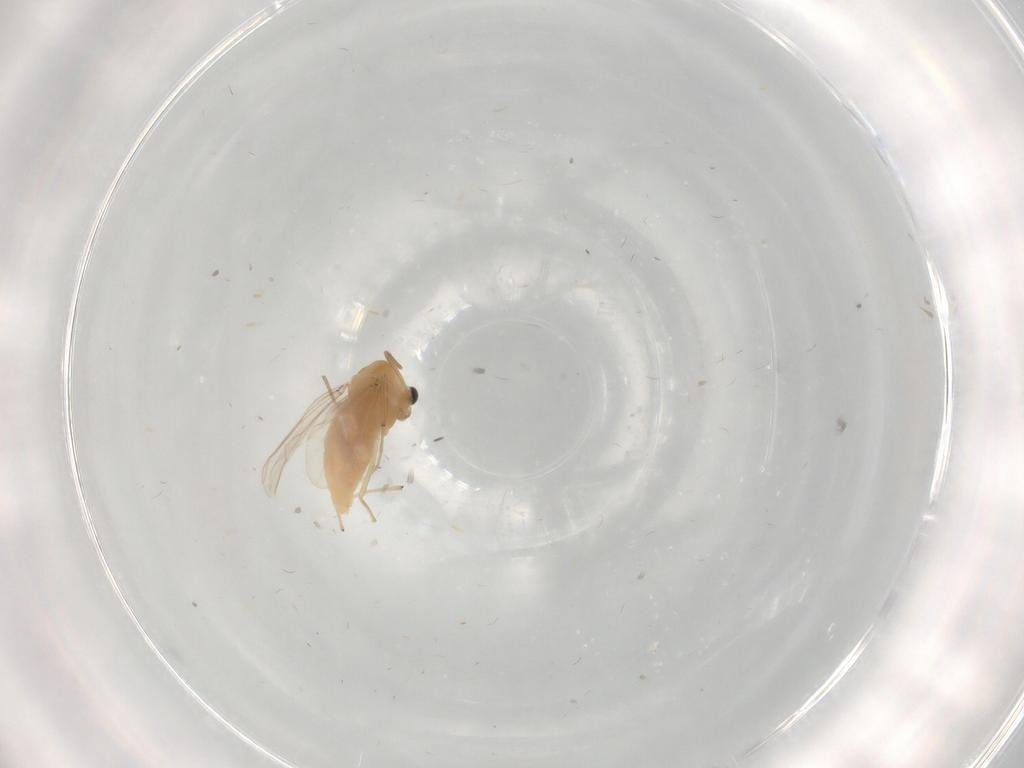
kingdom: Animalia
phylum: Arthropoda
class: Insecta
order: Diptera
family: Chironomidae
